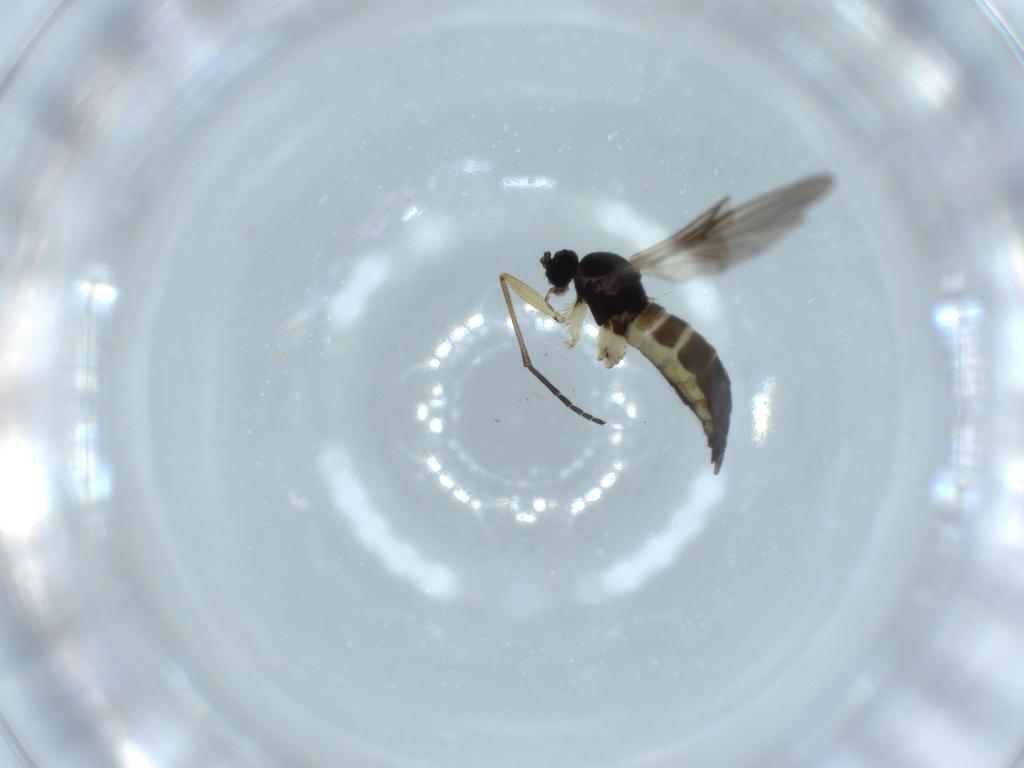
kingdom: Animalia
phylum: Arthropoda
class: Insecta
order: Diptera
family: Sciaridae
